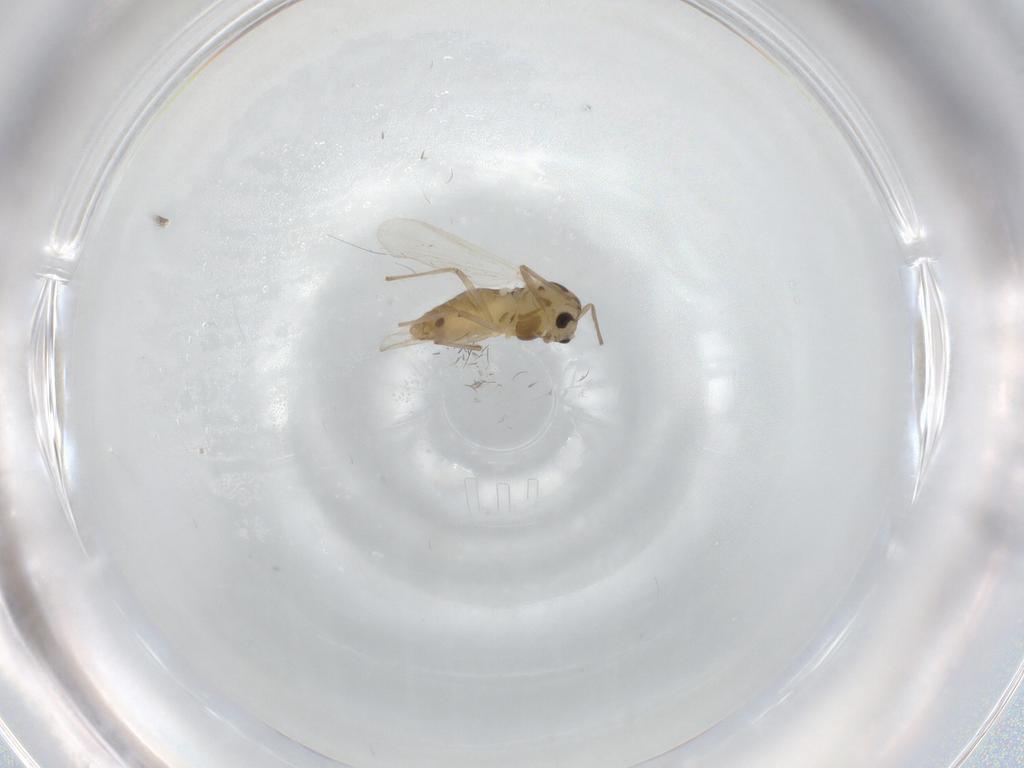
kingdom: Animalia
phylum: Arthropoda
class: Insecta
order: Diptera
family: Chironomidae
